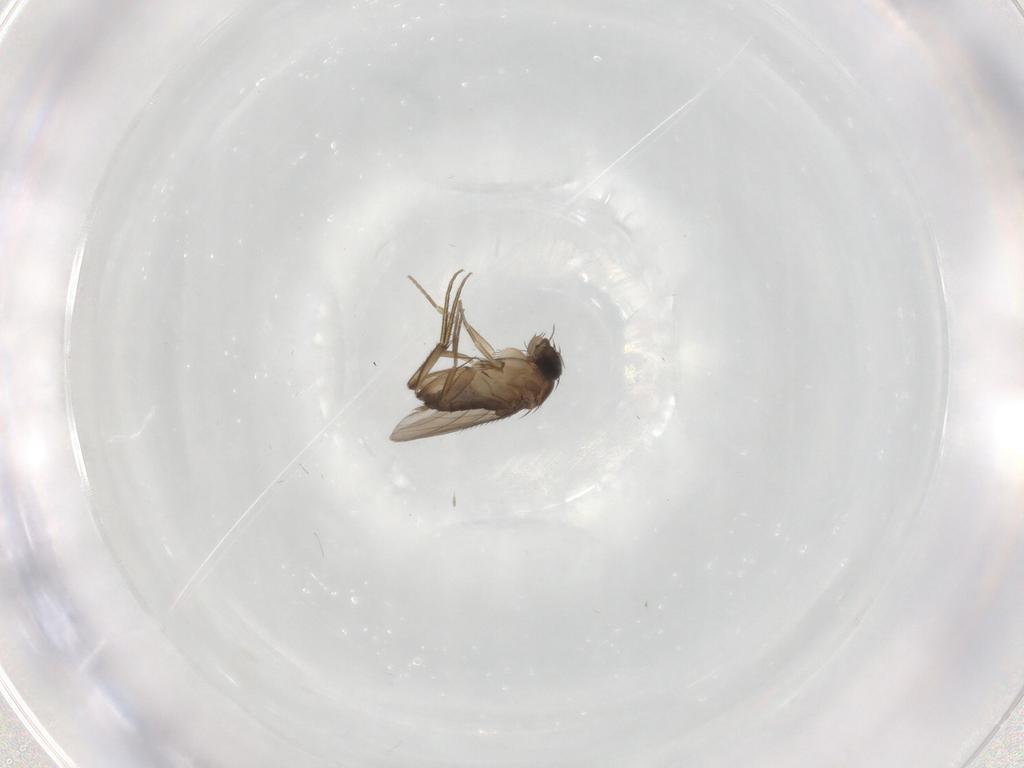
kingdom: Animalia
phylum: Arthropoda
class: Insecta
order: Diptera
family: Phoridae
